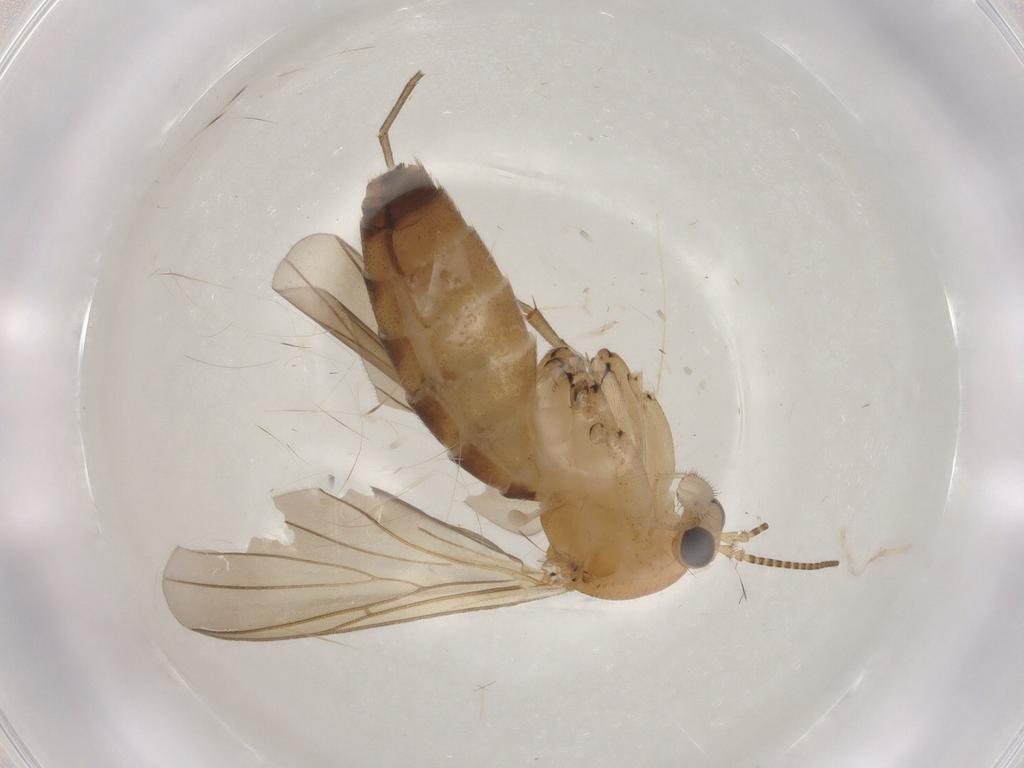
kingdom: Animalia
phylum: Arthropoda
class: Insecta
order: Diptera
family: Mycetophilidae
